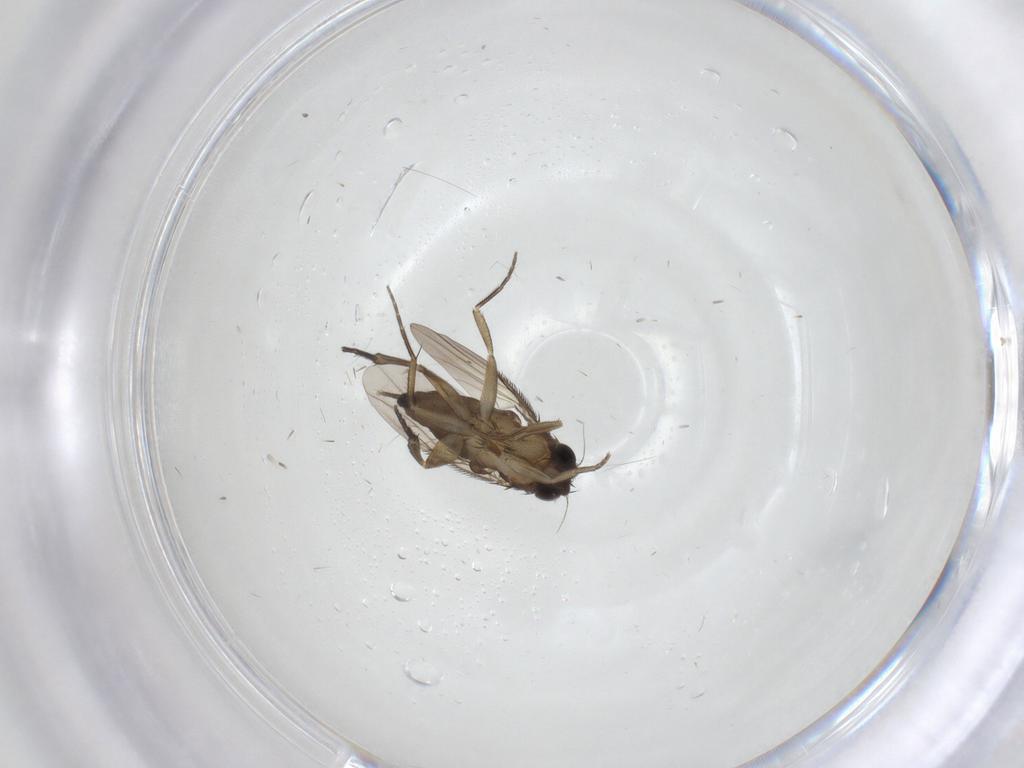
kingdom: Animalia
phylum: Arthropoda
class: Insecta
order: Diptera
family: Phoridae
